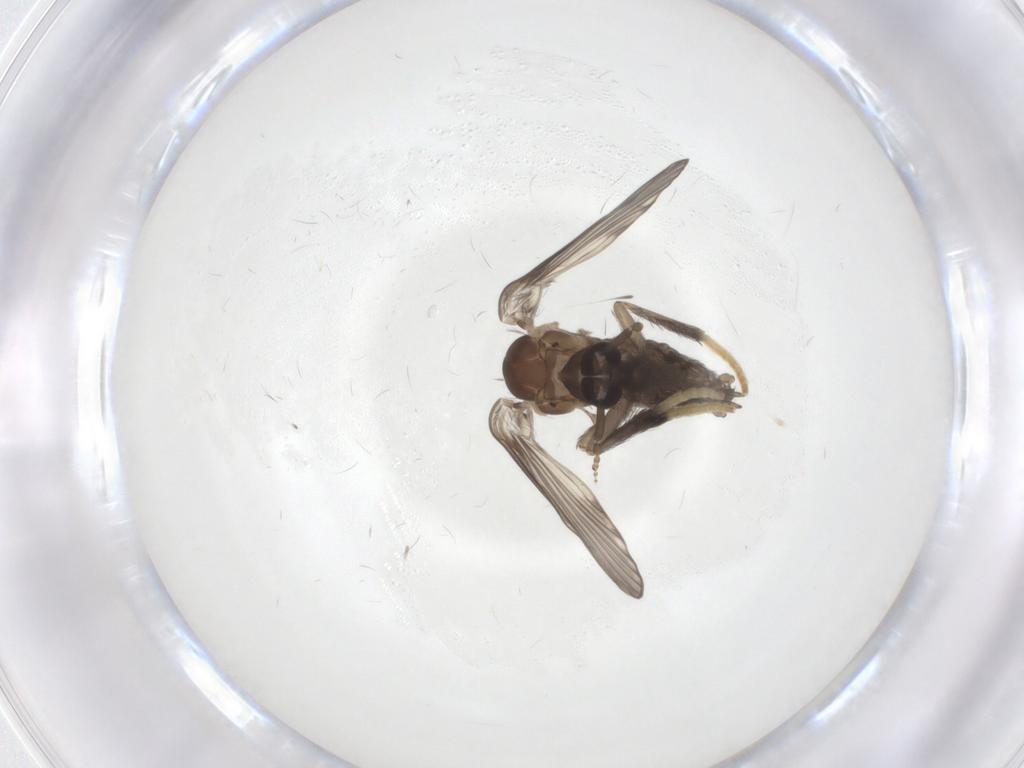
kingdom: Animalia
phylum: Arthropoda
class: Insecta
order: Diptera
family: Psychodidae
